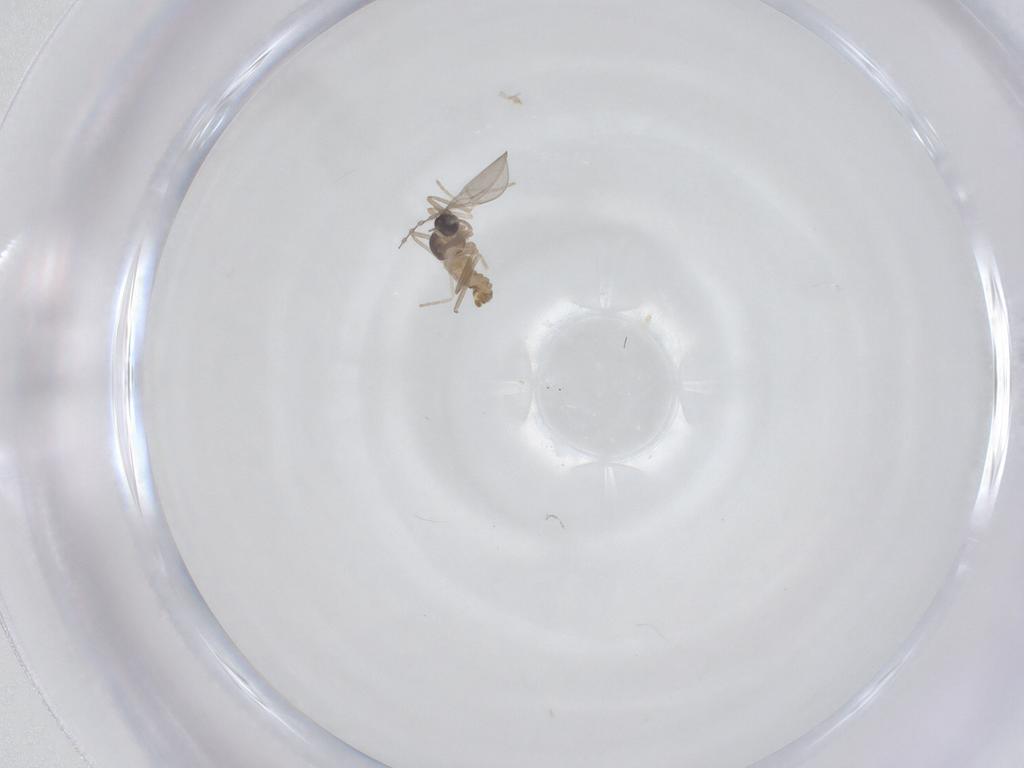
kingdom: Animalia
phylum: Arthropoda
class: Insecta
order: Diptera
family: Cecidomyiidae
